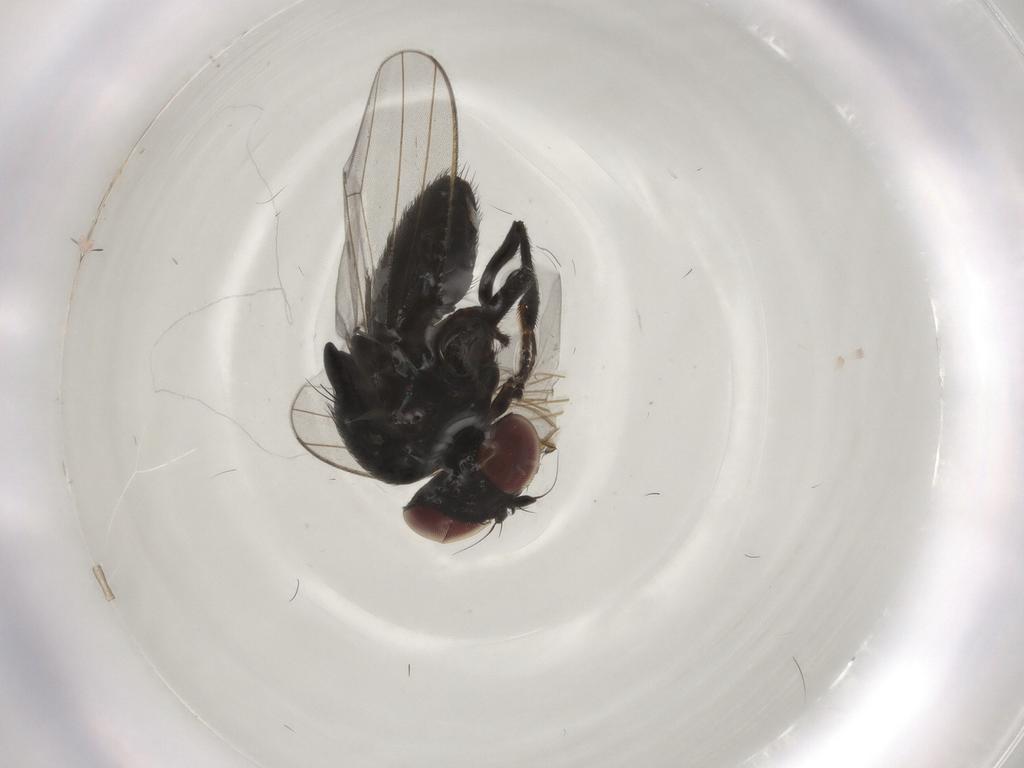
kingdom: Animalia
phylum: Arthropoda
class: Insecta
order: Diptera
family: Milichiidae
